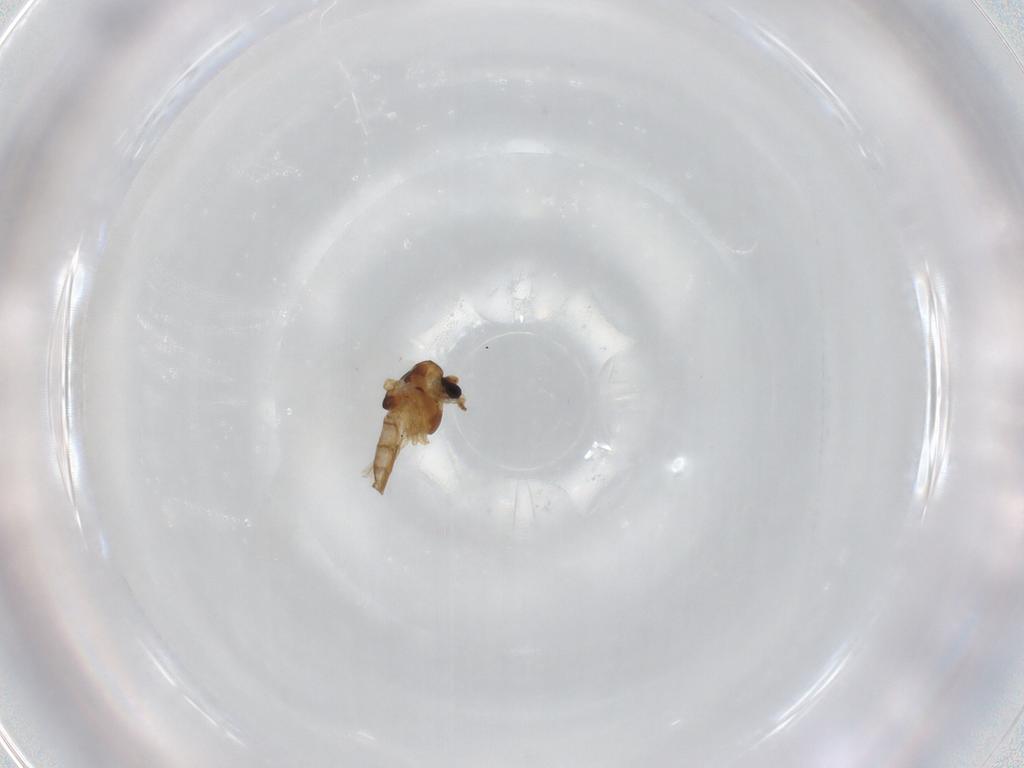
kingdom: Animalia
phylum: Arthropoda
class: Insecta
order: Diptera
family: Chironomidae
